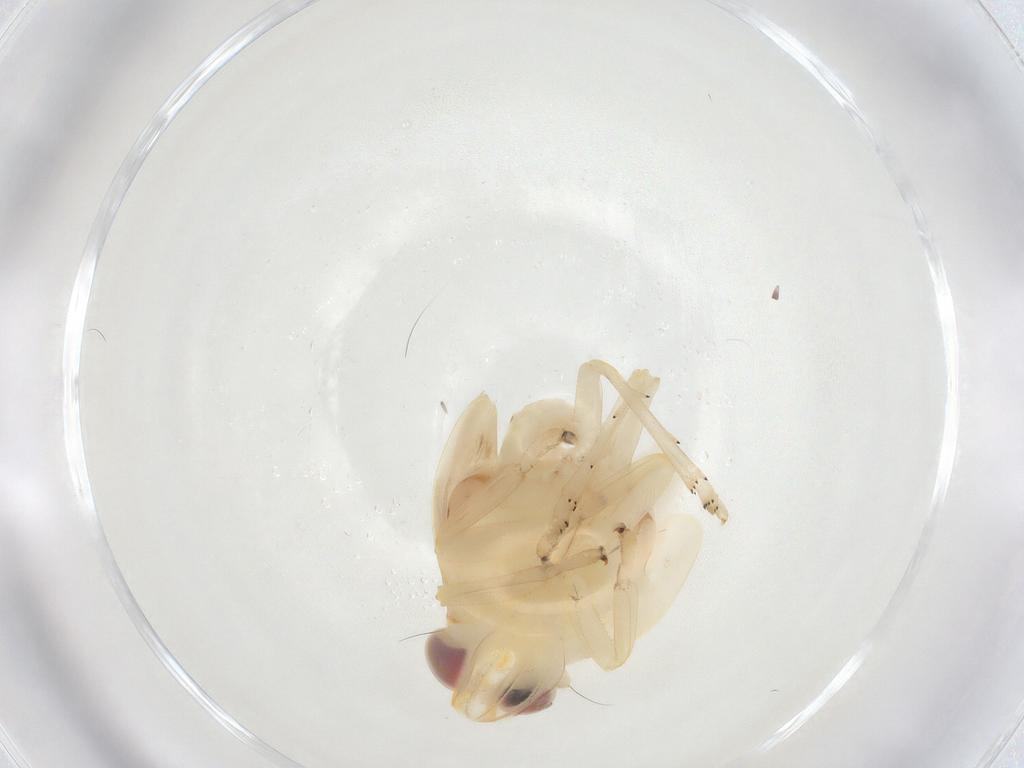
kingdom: Animalia
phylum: Arthropoda
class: Insecta
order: Hemiptera
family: Nogodinidae
